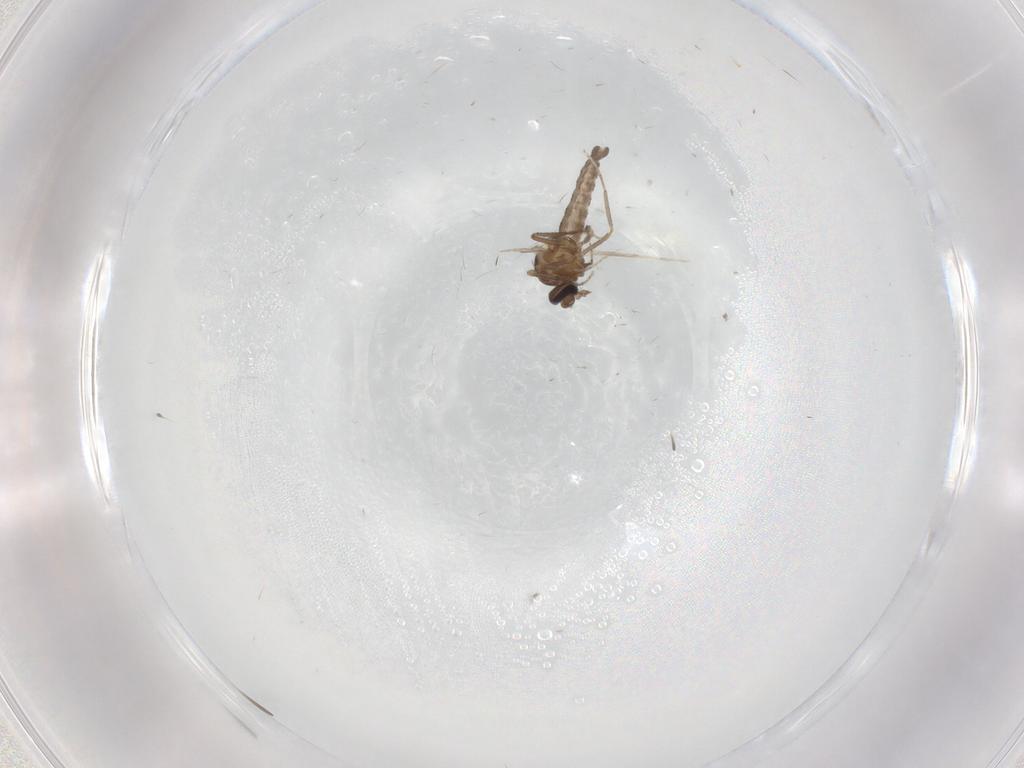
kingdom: Animalia
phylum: Arthropoda
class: Insecta
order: Diptera
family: Ceratopogonidae
